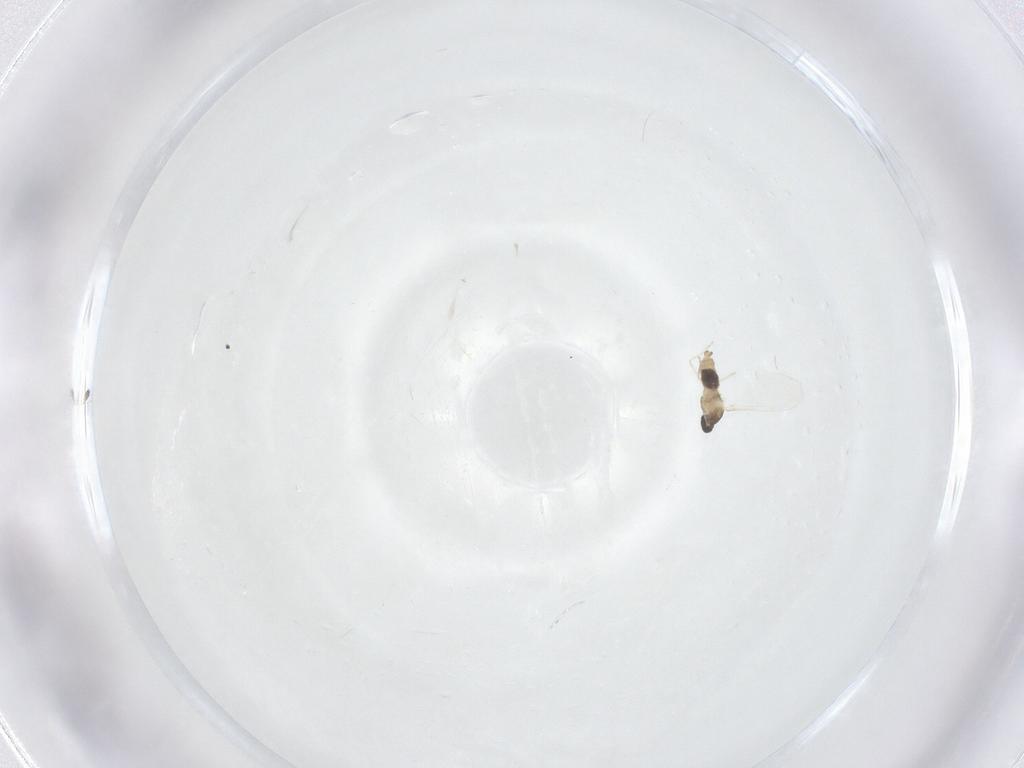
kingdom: Animalia
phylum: Arthropoda
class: Insecta
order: Diptera
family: Cecidomyiidae
